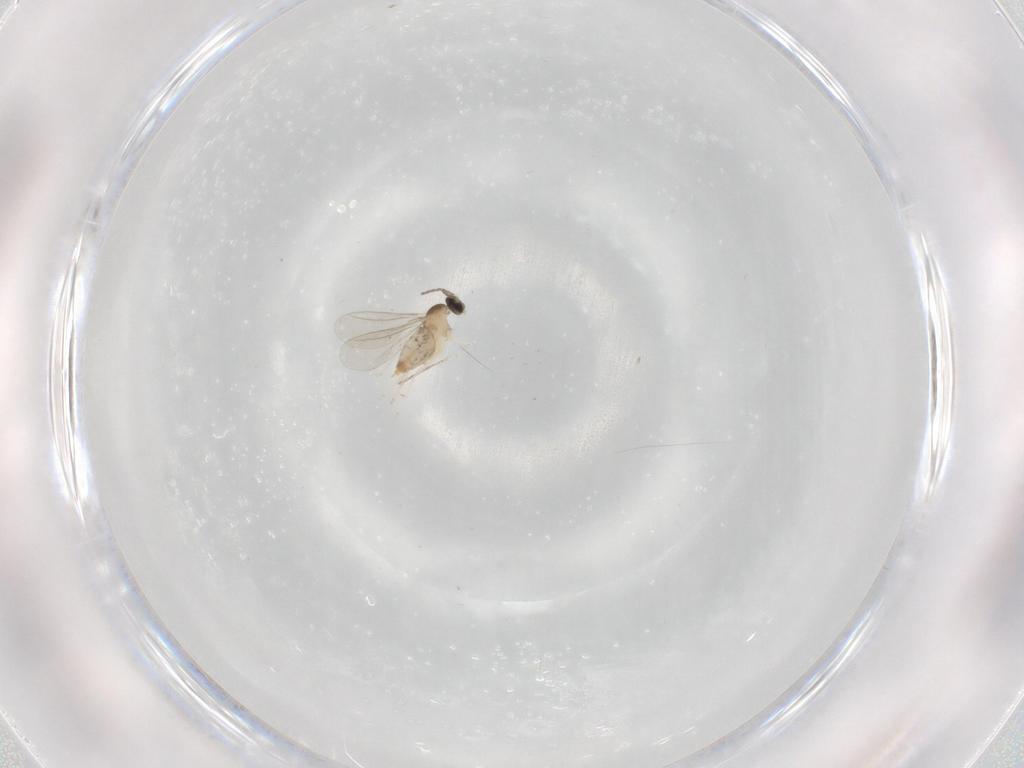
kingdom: Animalia
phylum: Arthropoda
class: Insecta
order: Diptera
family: Cecidomyiidae
